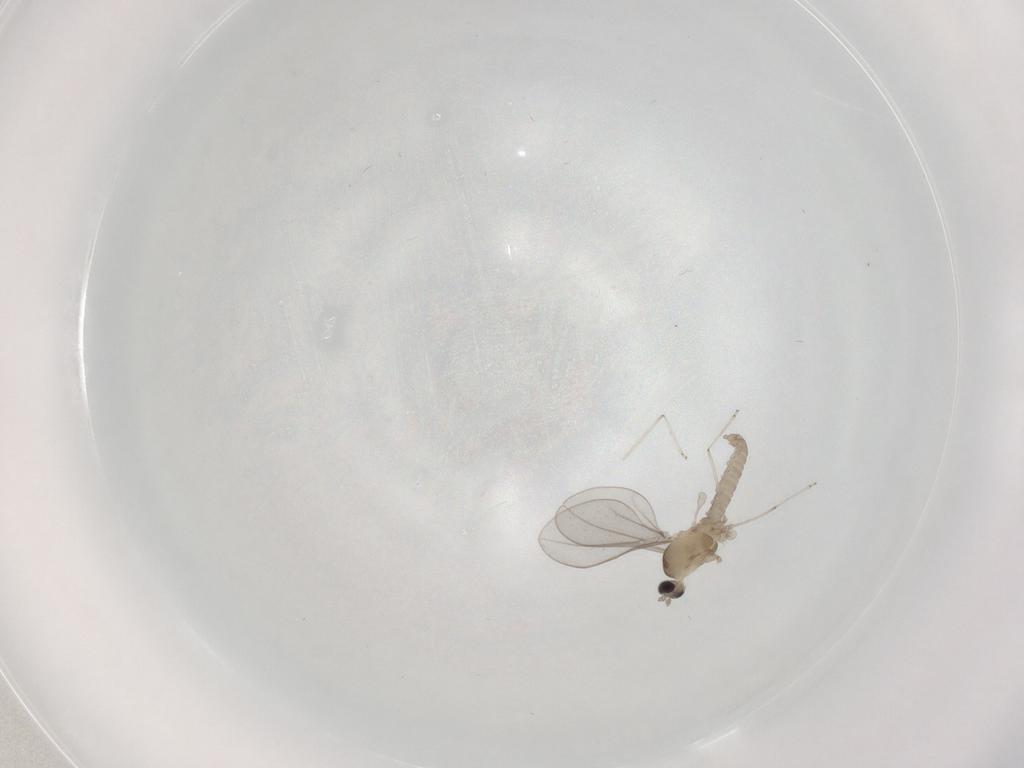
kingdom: Animalia
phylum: Arthropoda
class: Insecta
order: Diptera
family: Cecidomyiidae
